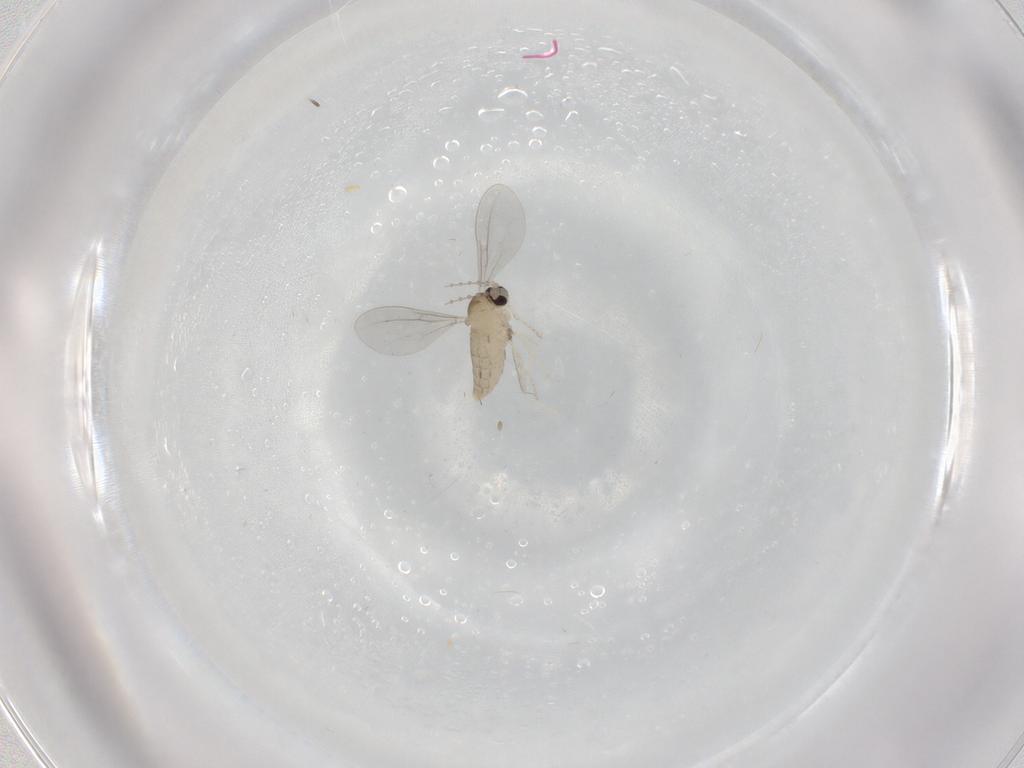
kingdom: Animalia
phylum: Arthropoda
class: Insecta
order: Diptera
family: Cecidomyiidae
